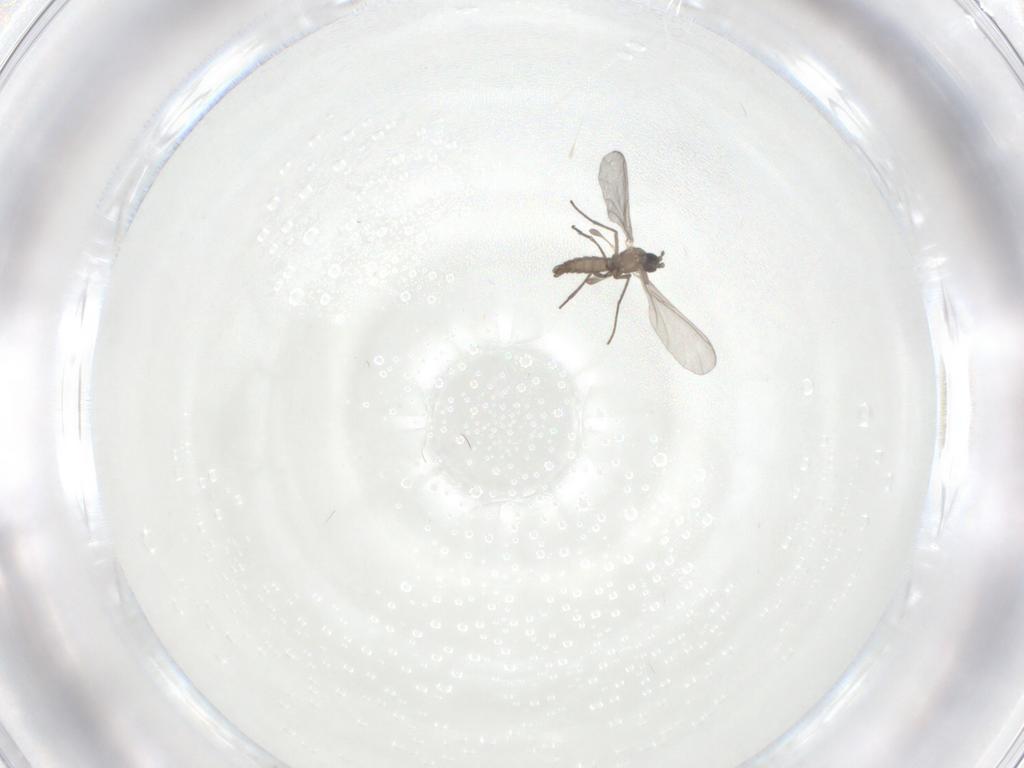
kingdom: Animalia
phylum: Arthropoda
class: Insecta
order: Diptera
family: Sciaridae
